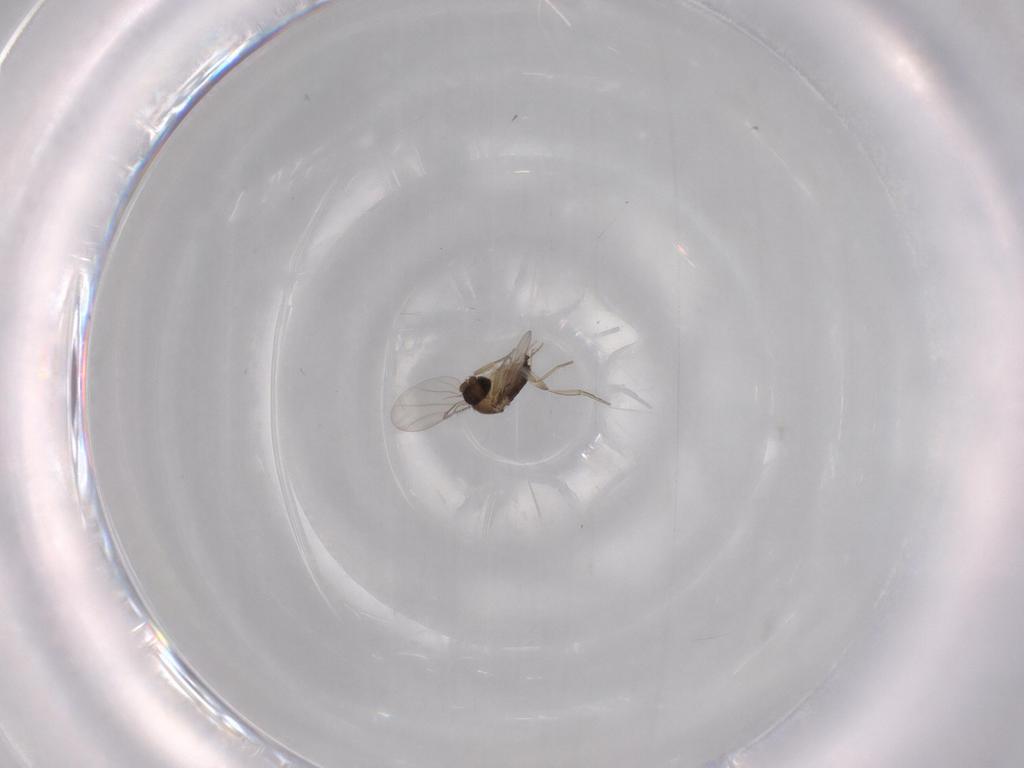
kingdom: Animalia
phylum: Arthropoda
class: Insecta
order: Diptera
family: Phoridae
